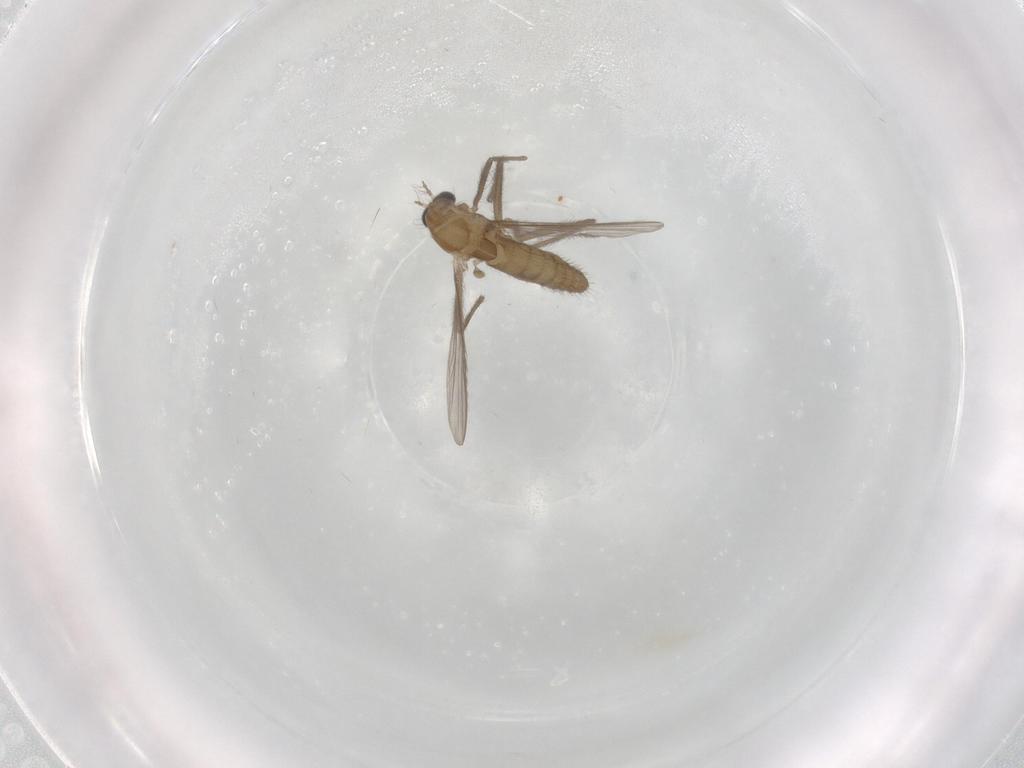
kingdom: Animalia
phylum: Arthropoda
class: Insecta
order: Diptera
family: Chironomidae
